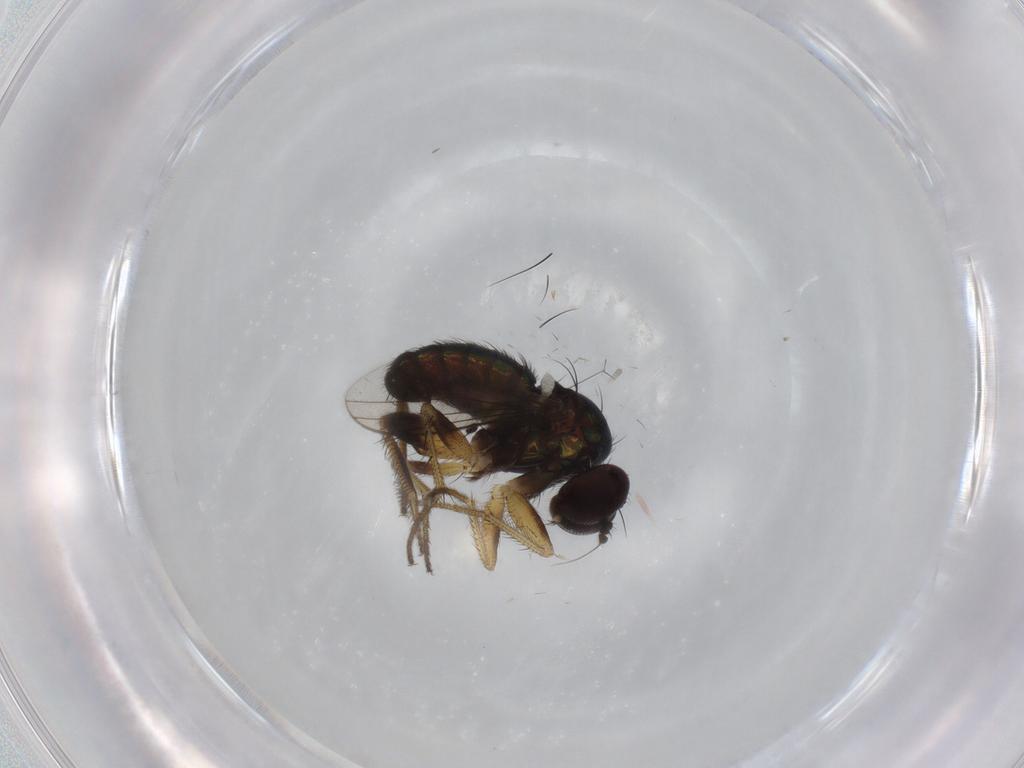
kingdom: Animalia
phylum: Arthropoda
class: Insecta
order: Diptera
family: Dolichopodidae
